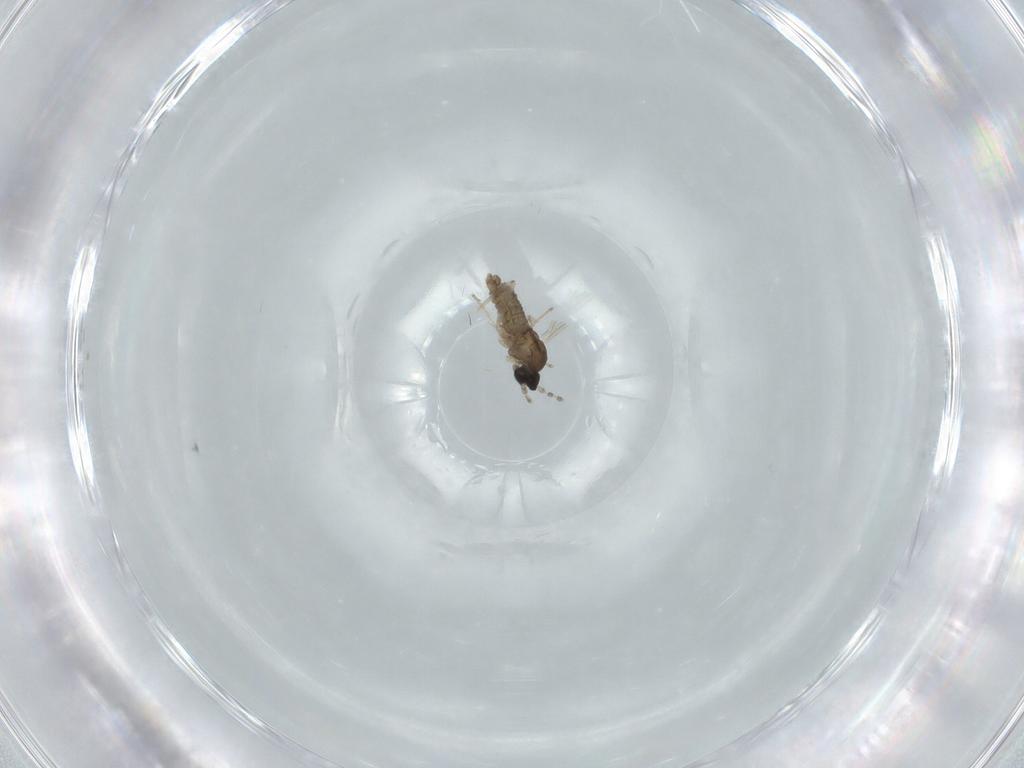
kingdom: Animalia
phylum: Arthropoda
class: Insecta
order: Diptera
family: Cecidomyiidae
